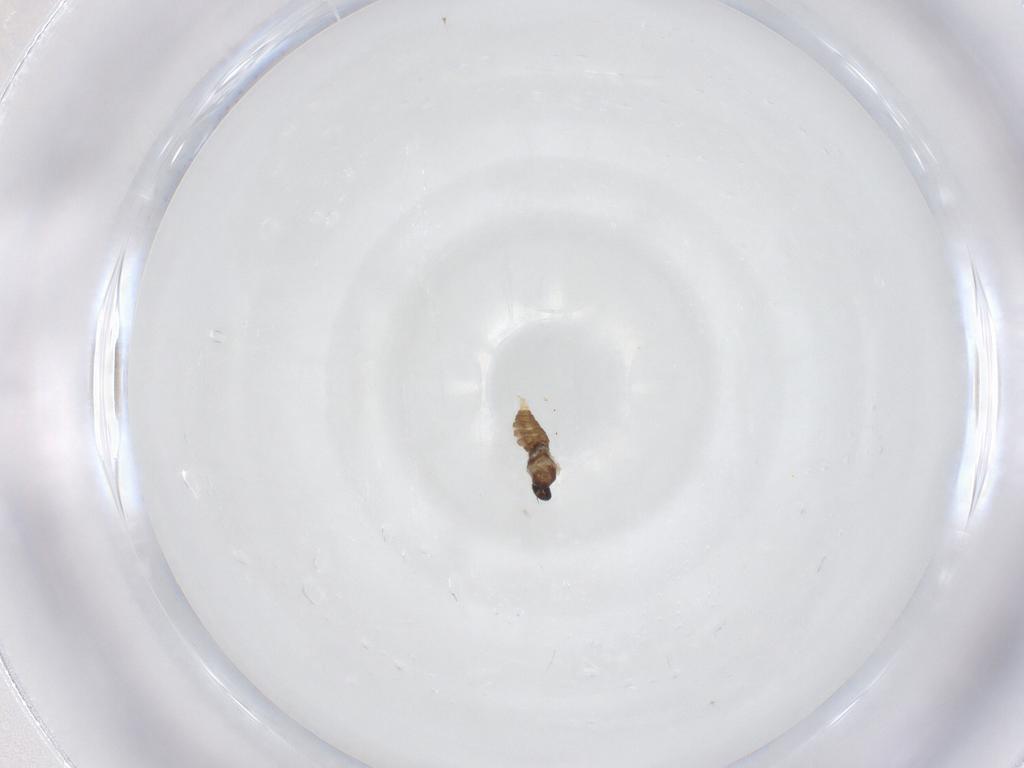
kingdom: Animalia
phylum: Arthropoda
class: Insecta
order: Diptera
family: Cecidomyiidae
